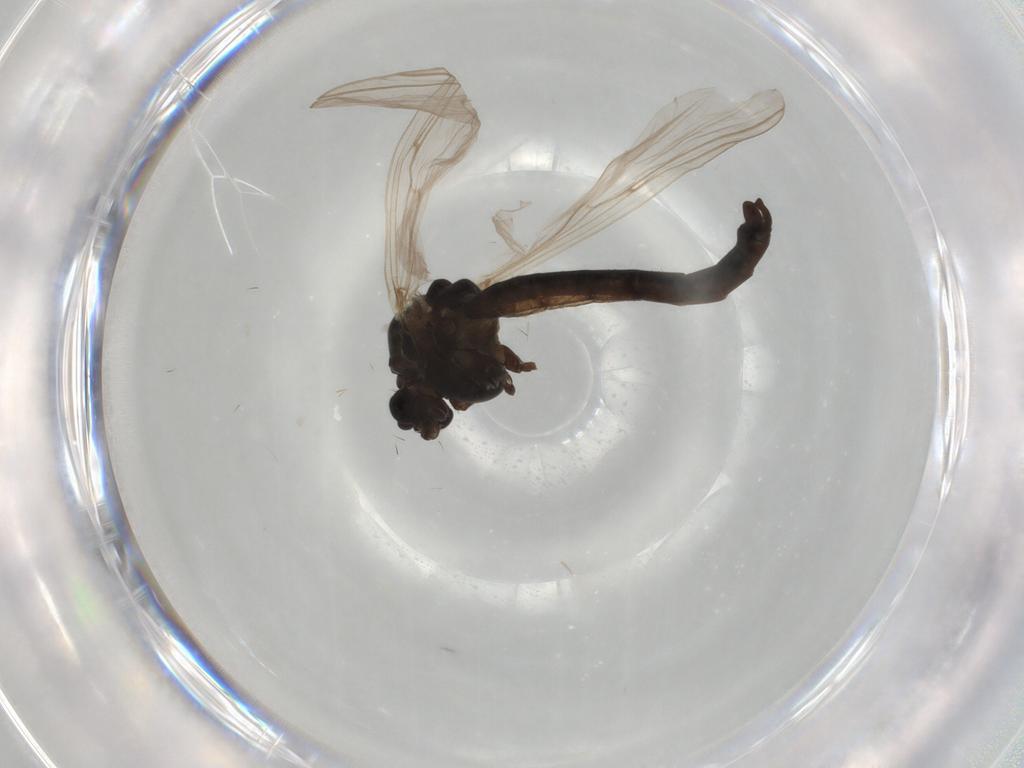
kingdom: Animalia
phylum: Arthropoda
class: Insecta
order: Diptera
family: Chironomidae
